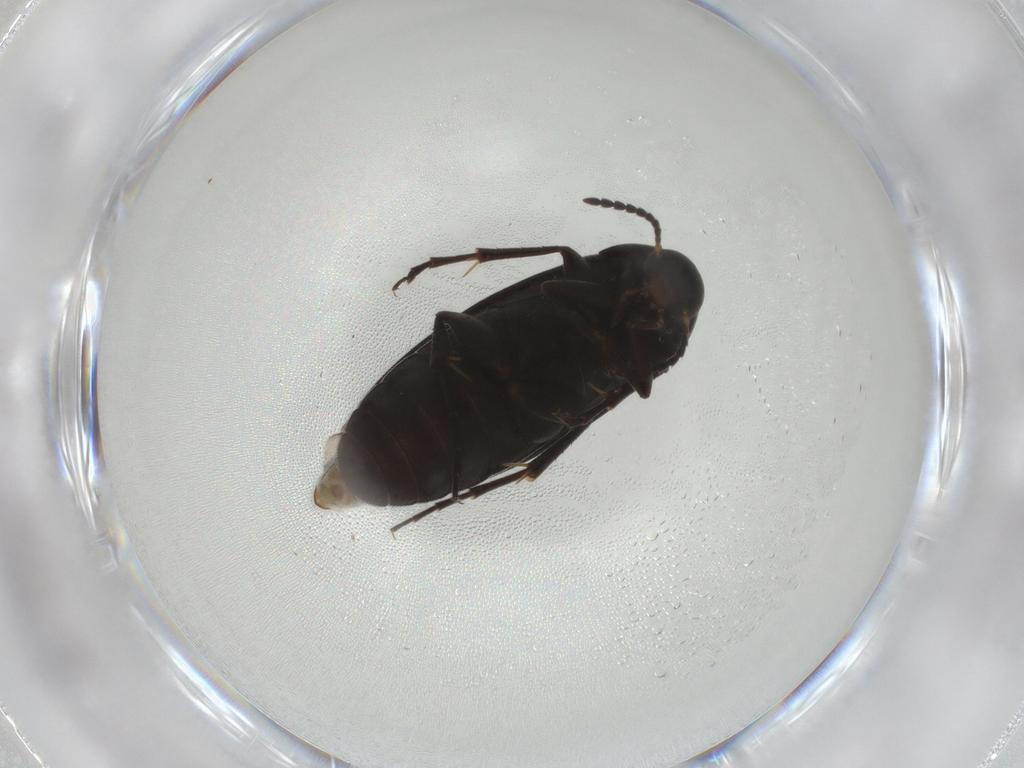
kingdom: Animalia
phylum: Arthropoda
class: Insecta
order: Coleoptera
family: Scraptiidae
